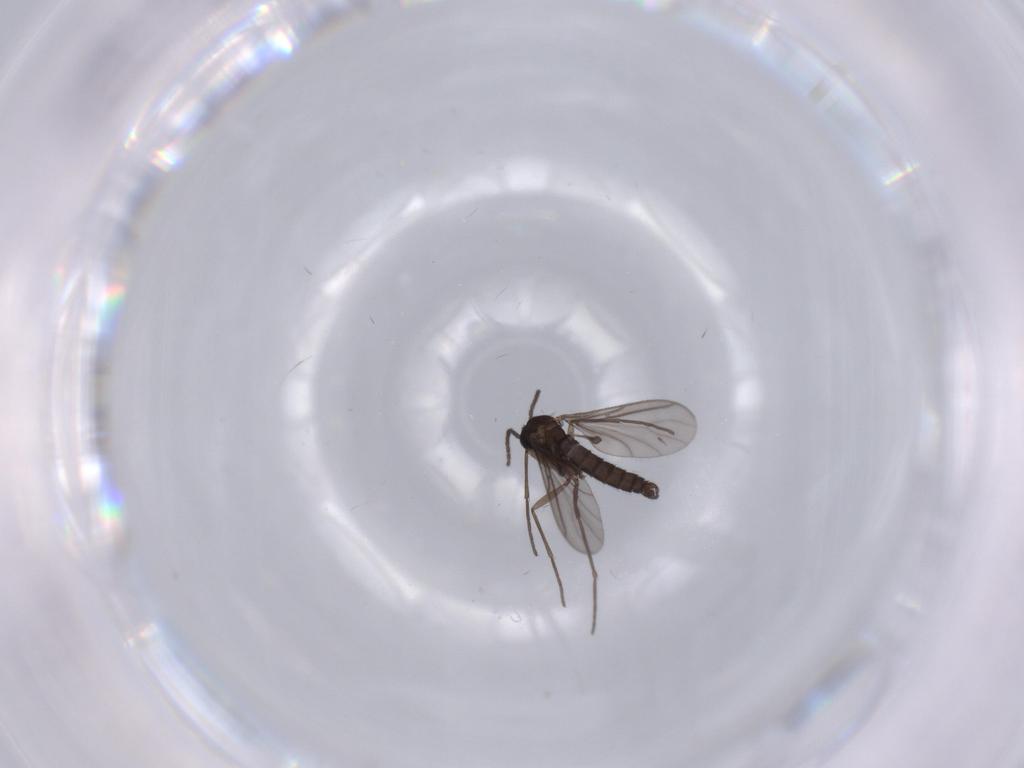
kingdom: Animalia
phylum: Arthropoda
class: Insecta
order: Diptera
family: Sciaridae
